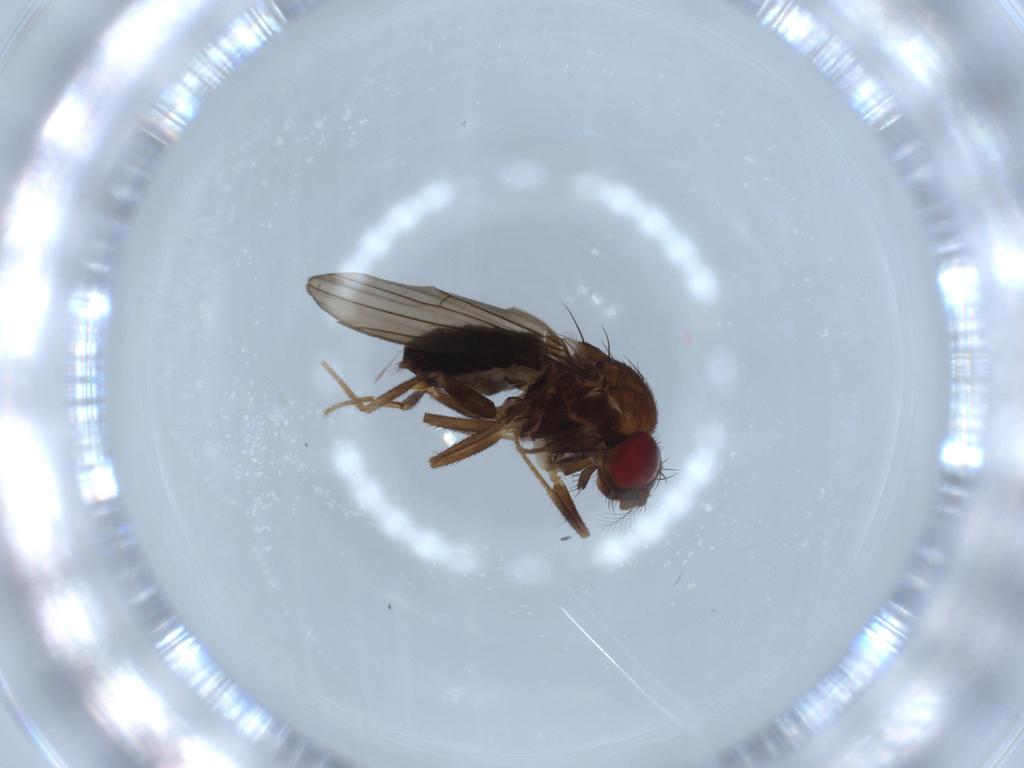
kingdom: Animalia
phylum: Arthropoda
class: Insecta
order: Diptera
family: Drosophilidae
